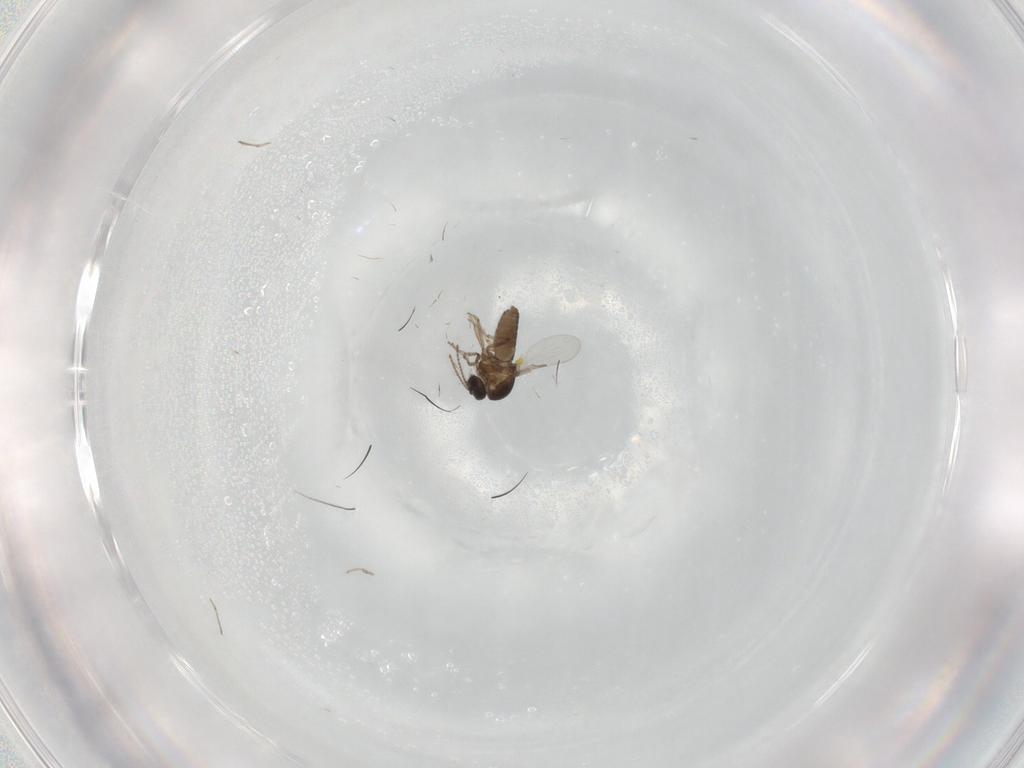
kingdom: Animalia
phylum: Arthropoda
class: Insecta
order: Diptera
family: Ceratopogonidae
